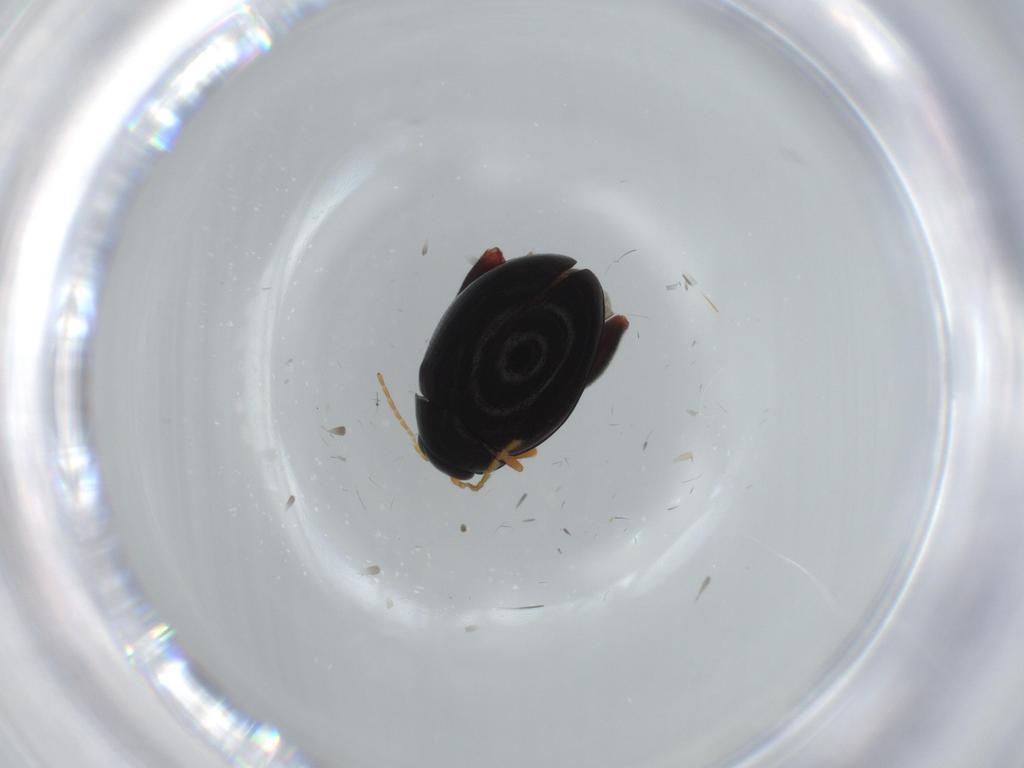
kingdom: Animalia
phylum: Arthropoda
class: Insecta
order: Coleoptera
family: Chrysomelidae
